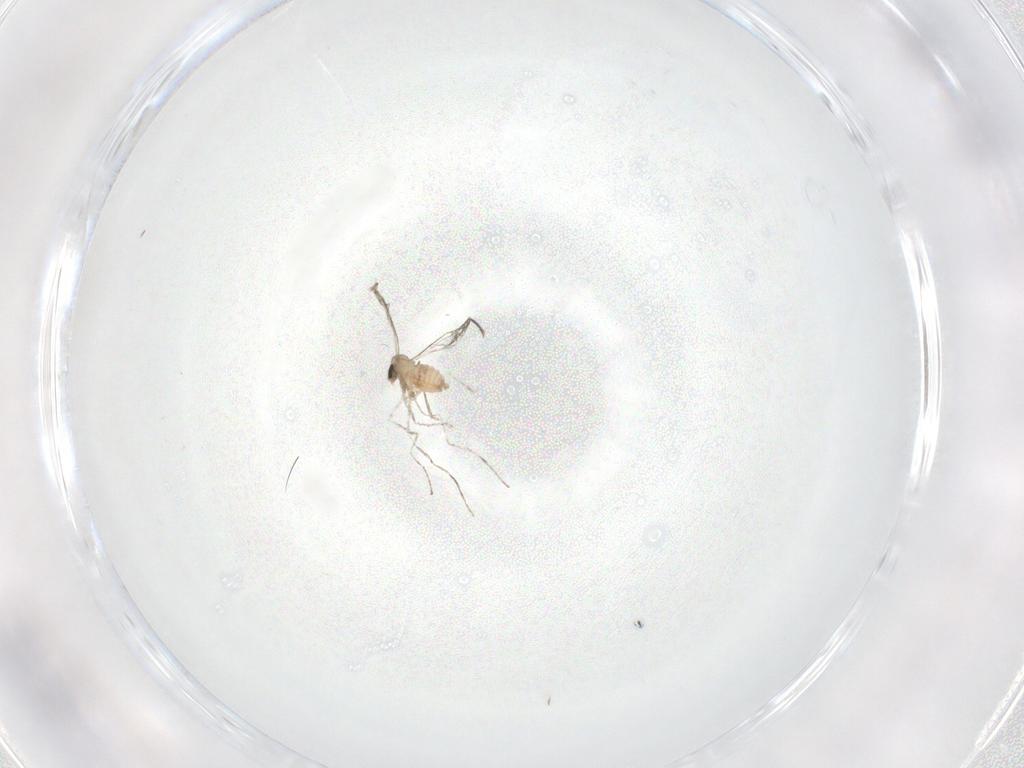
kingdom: Animalia
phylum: Arthropoda
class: Insecta
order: Diptera
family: Cecidomyiidae
